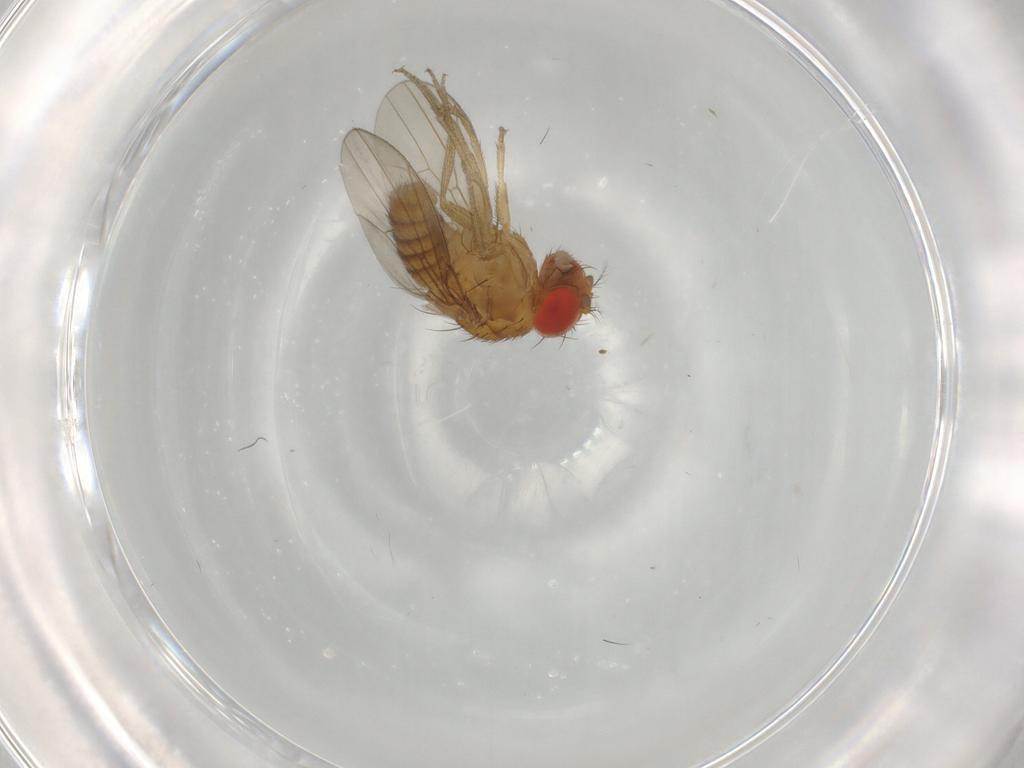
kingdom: Animalia
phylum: Arthropoda
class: Insecta
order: Diptera
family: Drosophilidae
